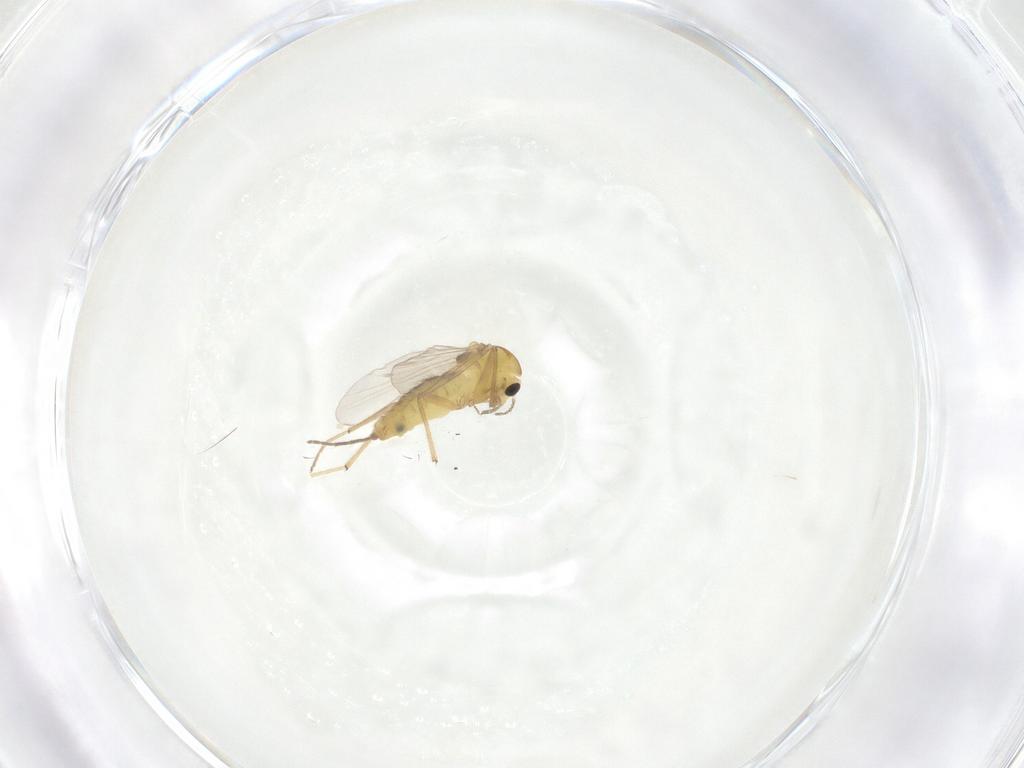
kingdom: Animalia
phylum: Arthropoda
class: Insecta
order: Diptera
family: Chironomidae
